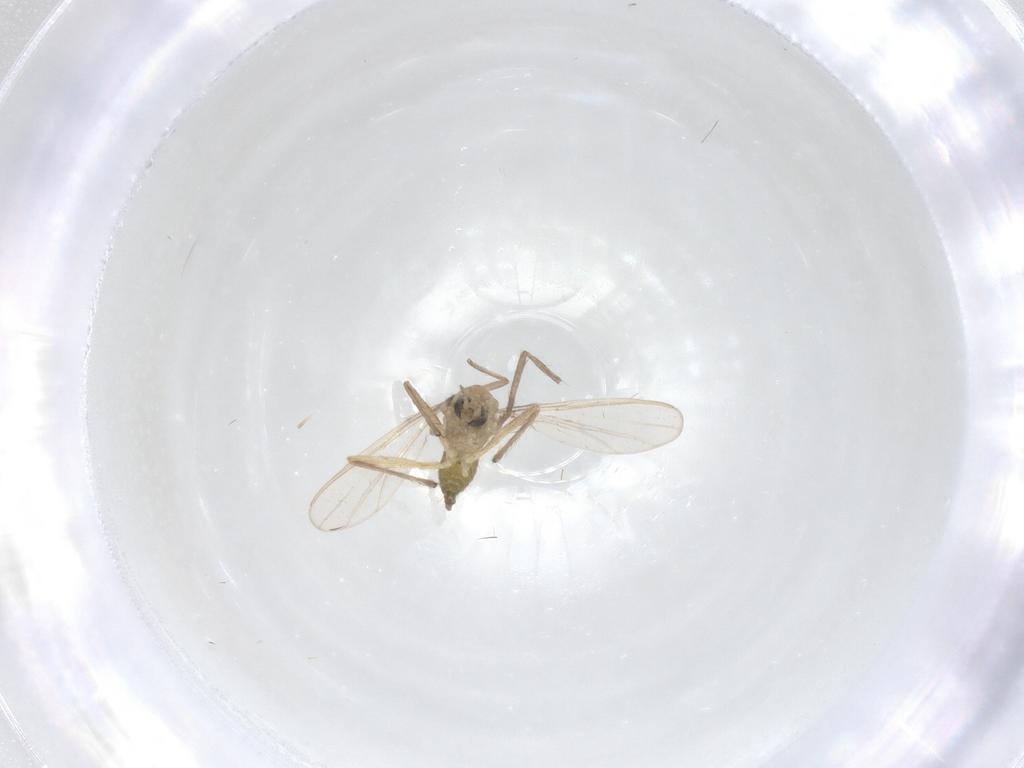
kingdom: Animalia
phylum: Arthropoda
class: Insecta
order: Diptera
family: Chironomidae
